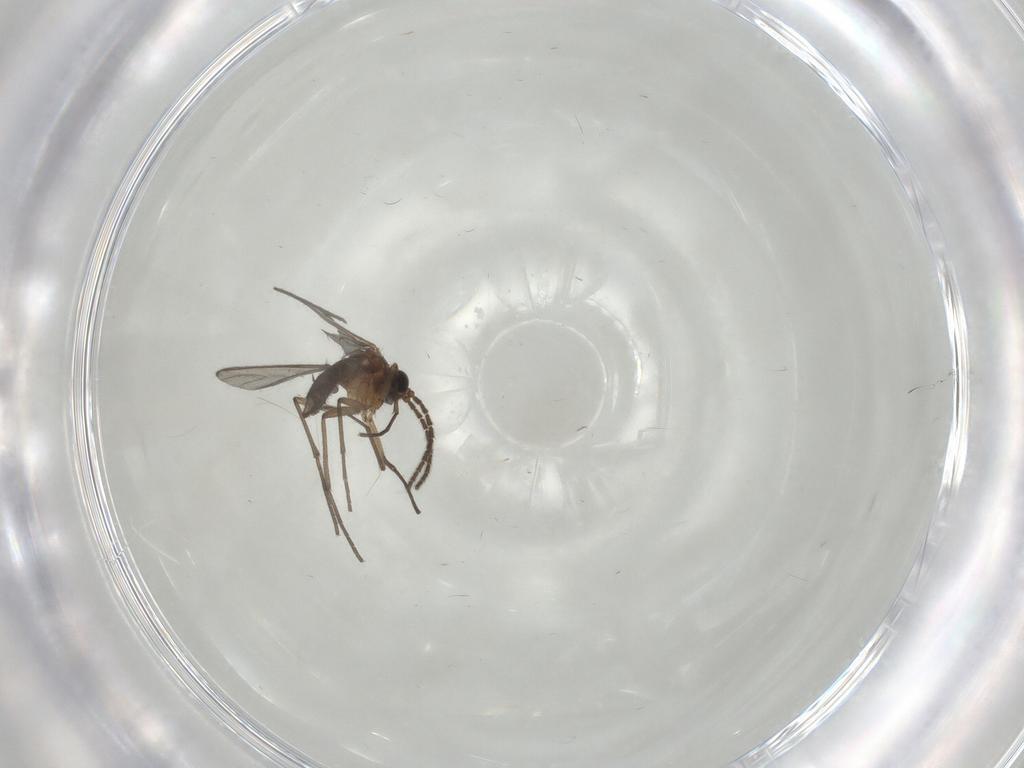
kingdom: Animalia
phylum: Arthropoda
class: Insecta
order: Diptera
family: Sciaridae
